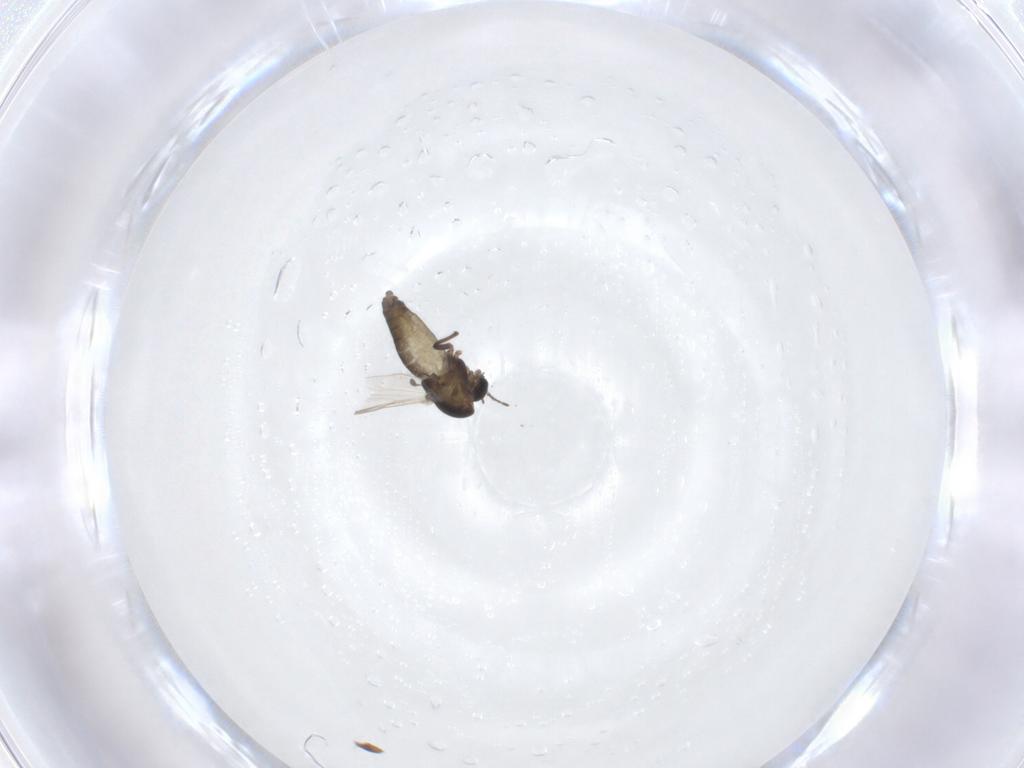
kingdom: Animalia
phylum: Arthropoda
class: Insecta
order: Diptera
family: Chironomidae
